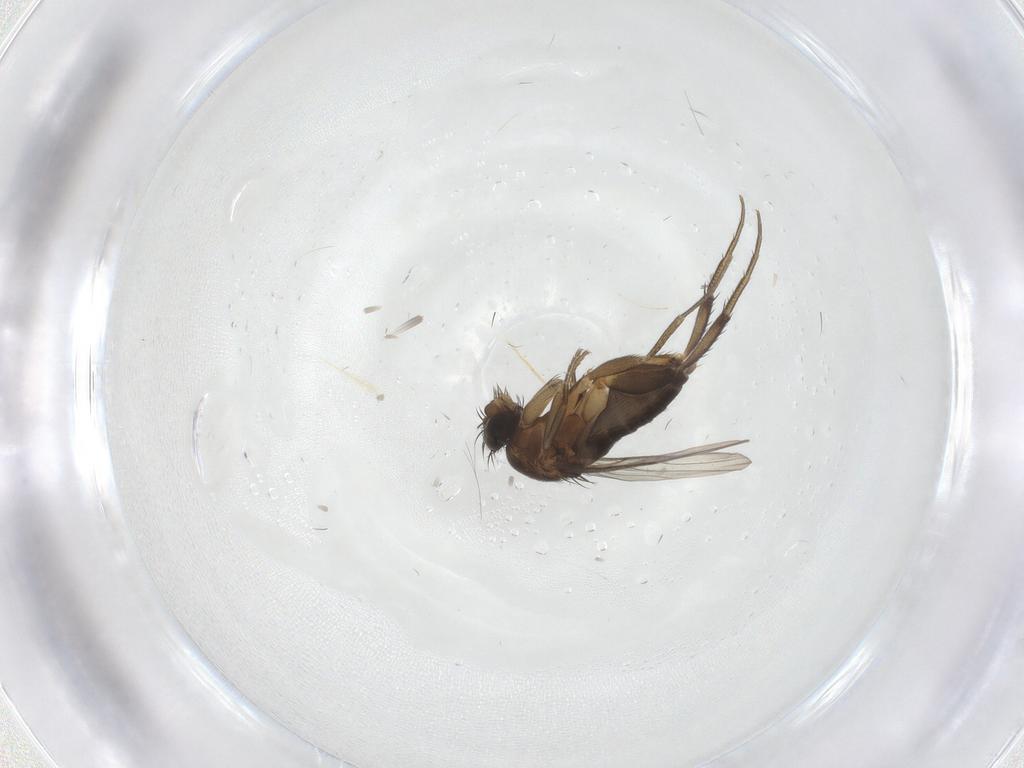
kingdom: Animalia
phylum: Arthropoda
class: Insecta
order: Diptera
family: Phoridae
